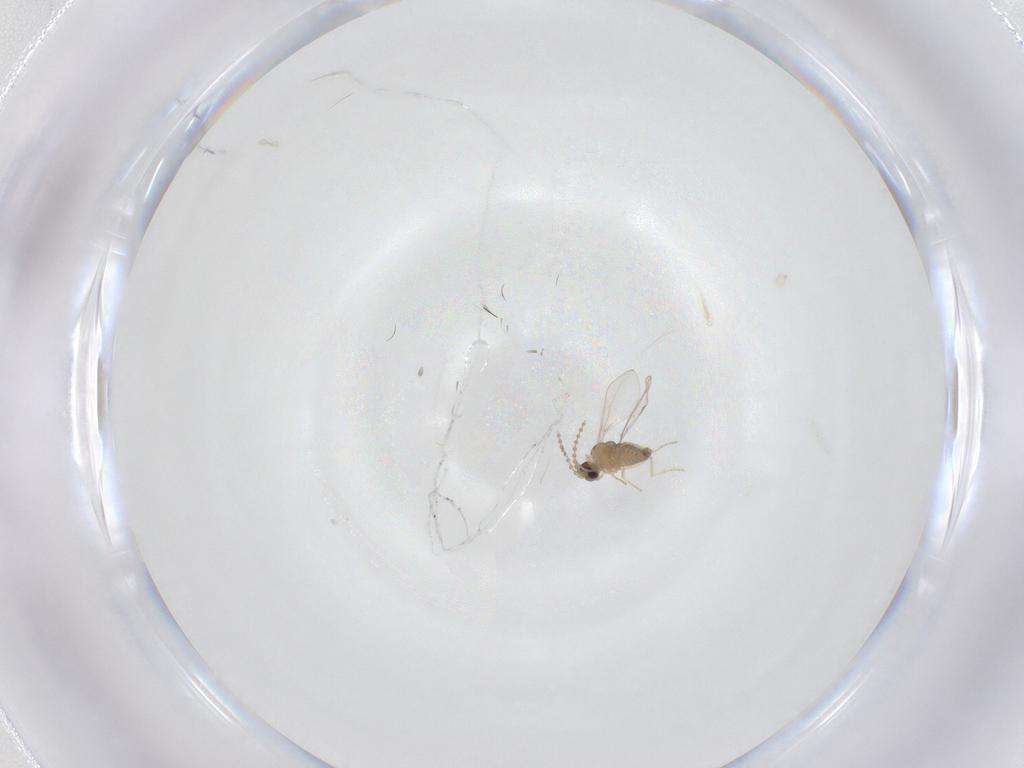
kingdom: Animalia
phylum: Arthropoda
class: Insecta
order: Diptera
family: Cecidomyiidae
